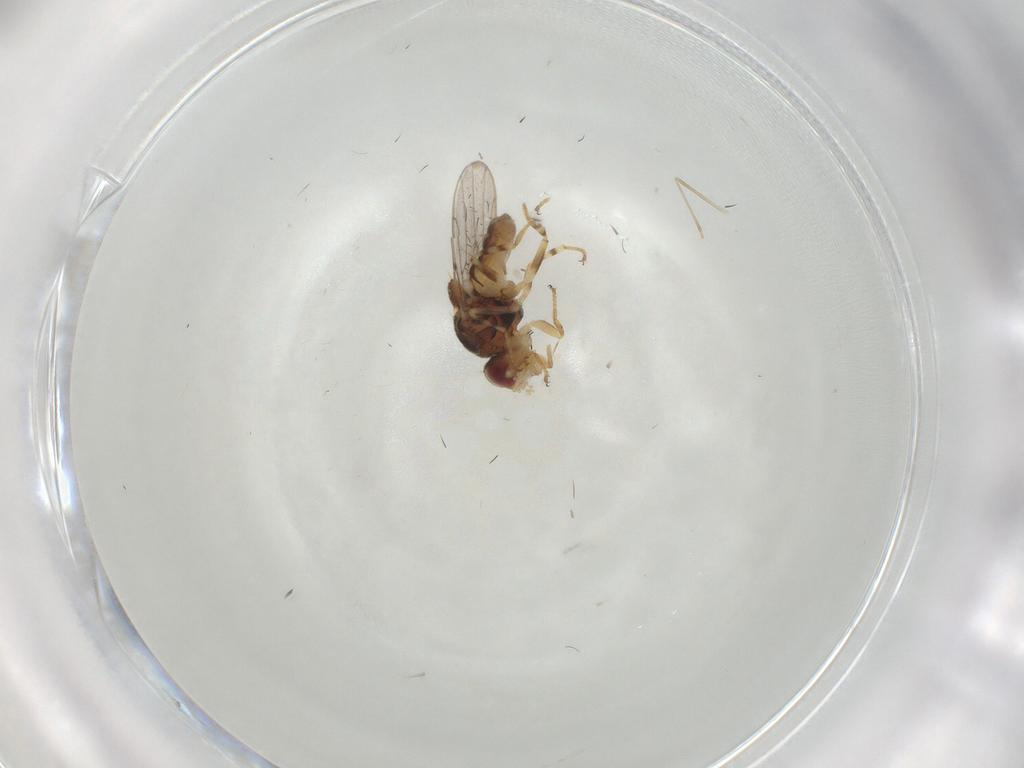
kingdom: Animalia
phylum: Arthropoda
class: Insecta
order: Diptera
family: Chloropidae
